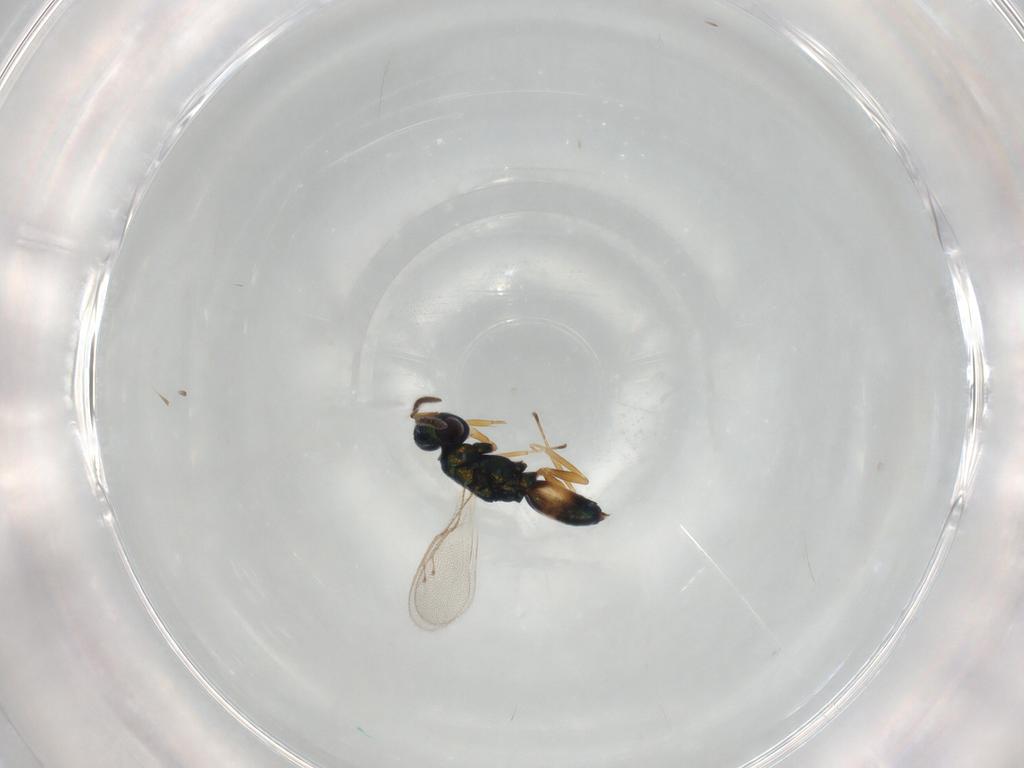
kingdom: Animalia
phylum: Arthropoda
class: Insecta
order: Hymenoptera
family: Pteromalidae
